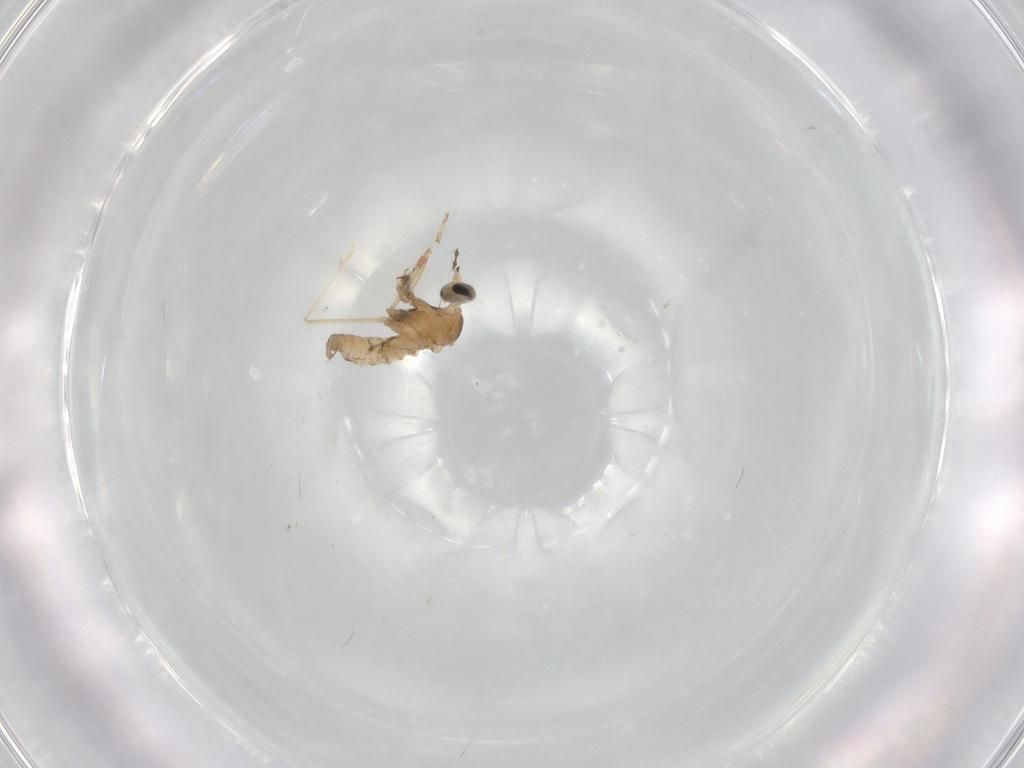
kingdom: Animalia
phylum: Arthropoda
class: Insecta
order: Diptera
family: Cecidomyiidae
